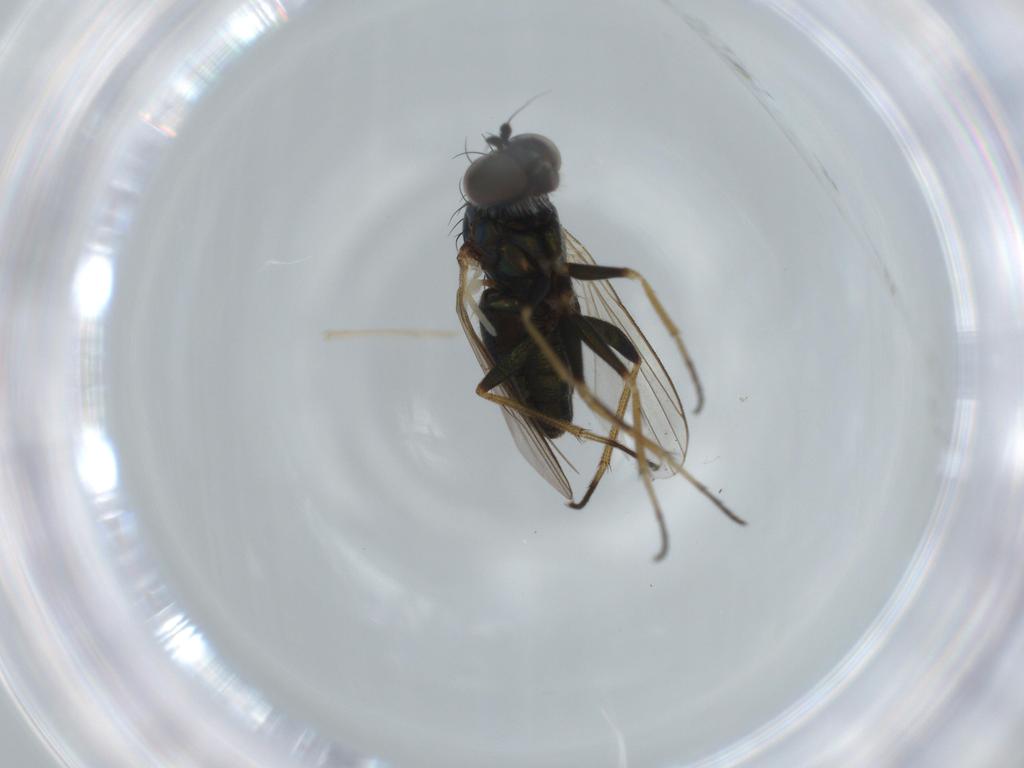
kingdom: Animalia
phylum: Arthropoda
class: Insecta
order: Diptera
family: Dolichopodidae
